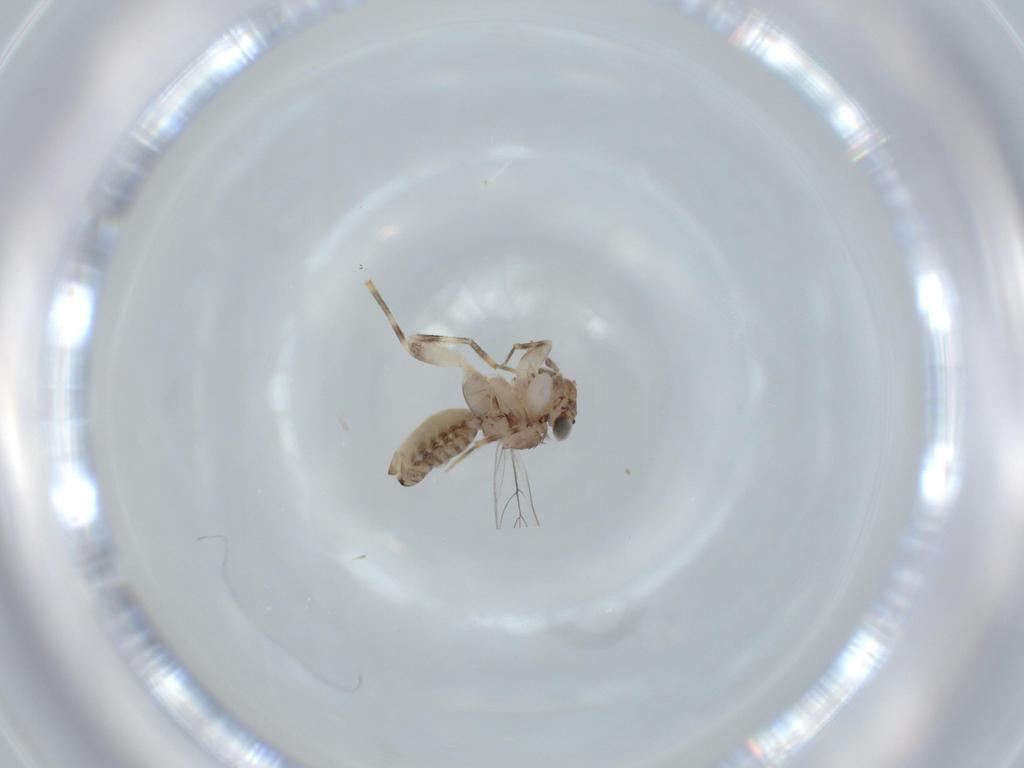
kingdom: Animalia
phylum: Arthropoda
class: Insecta
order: Psocodea
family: Lepidopsocidae
